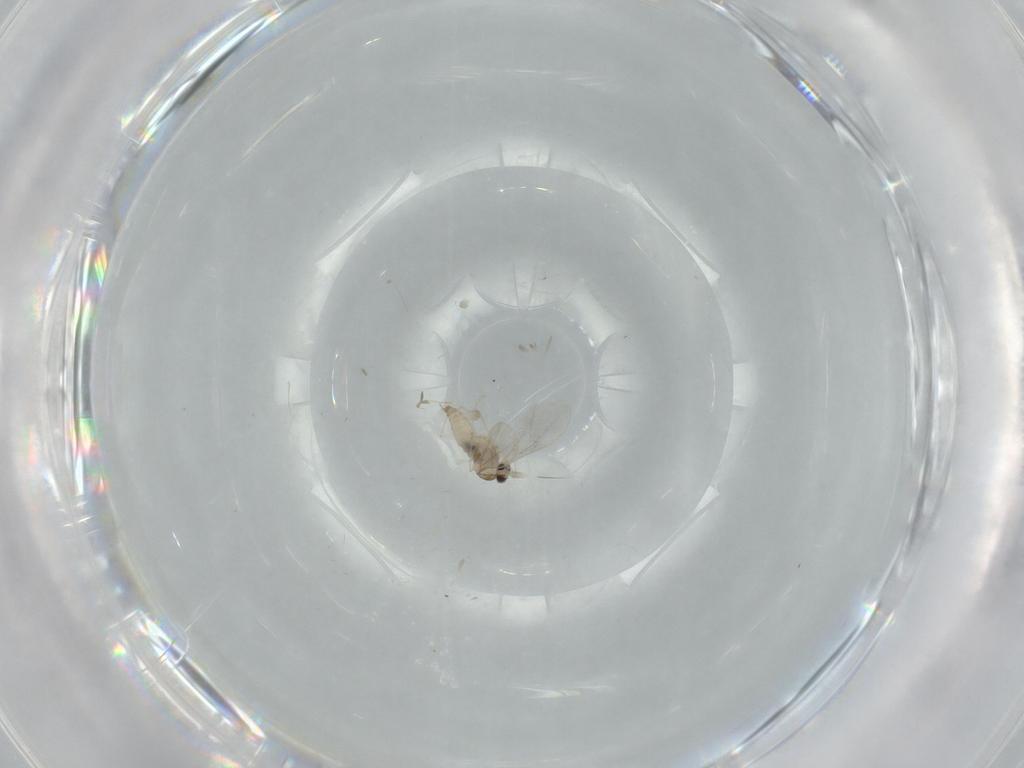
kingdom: Animalia
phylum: Arthropoda
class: Insecta
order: Diptera
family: Cecidomyiidae
